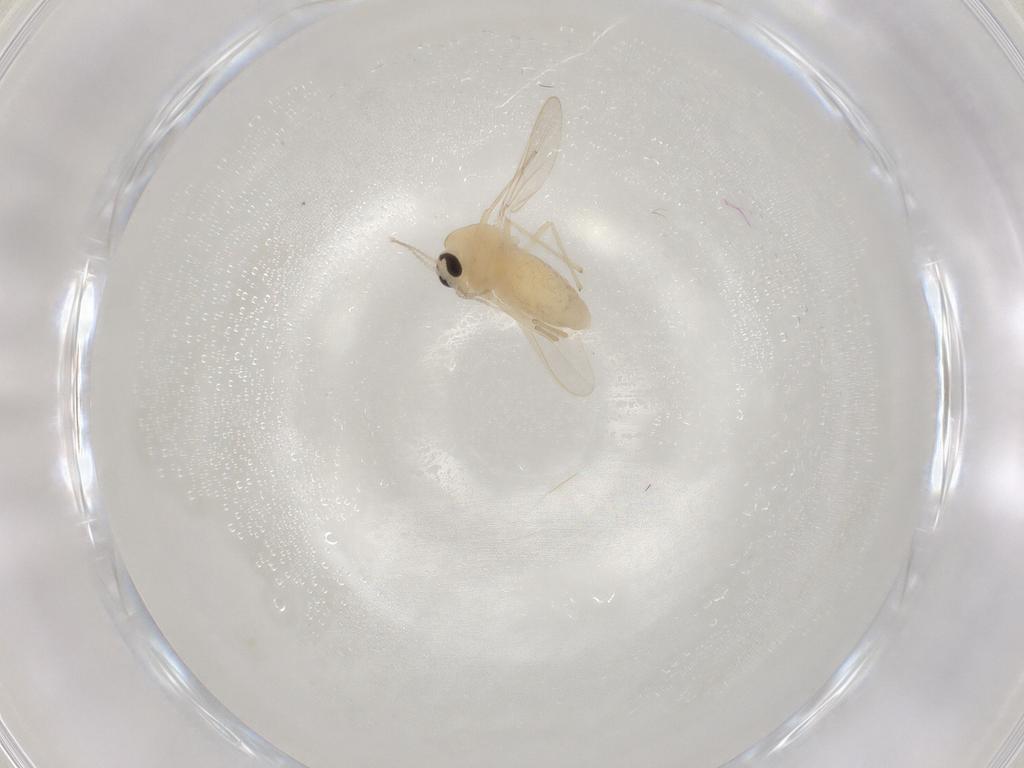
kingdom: Animalia
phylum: Arthropoda
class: Insecta
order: Diptera
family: Chironomidae
